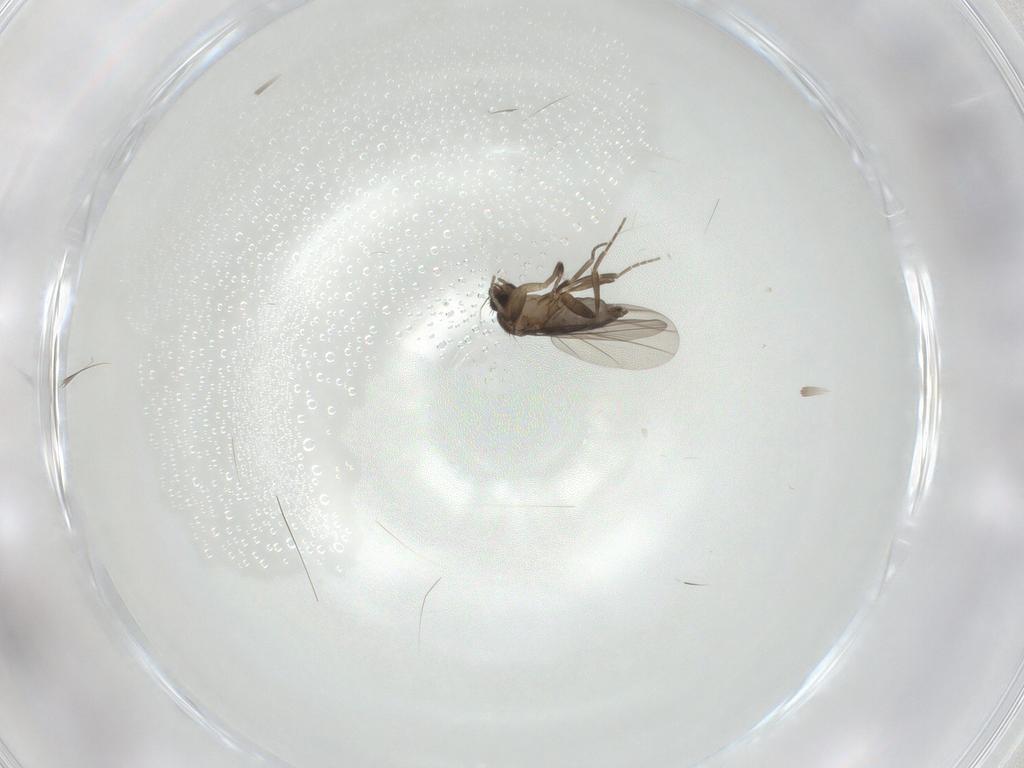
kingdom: Animalia
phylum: Arthropoda
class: Insecta
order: Diptera
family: Phoridae
